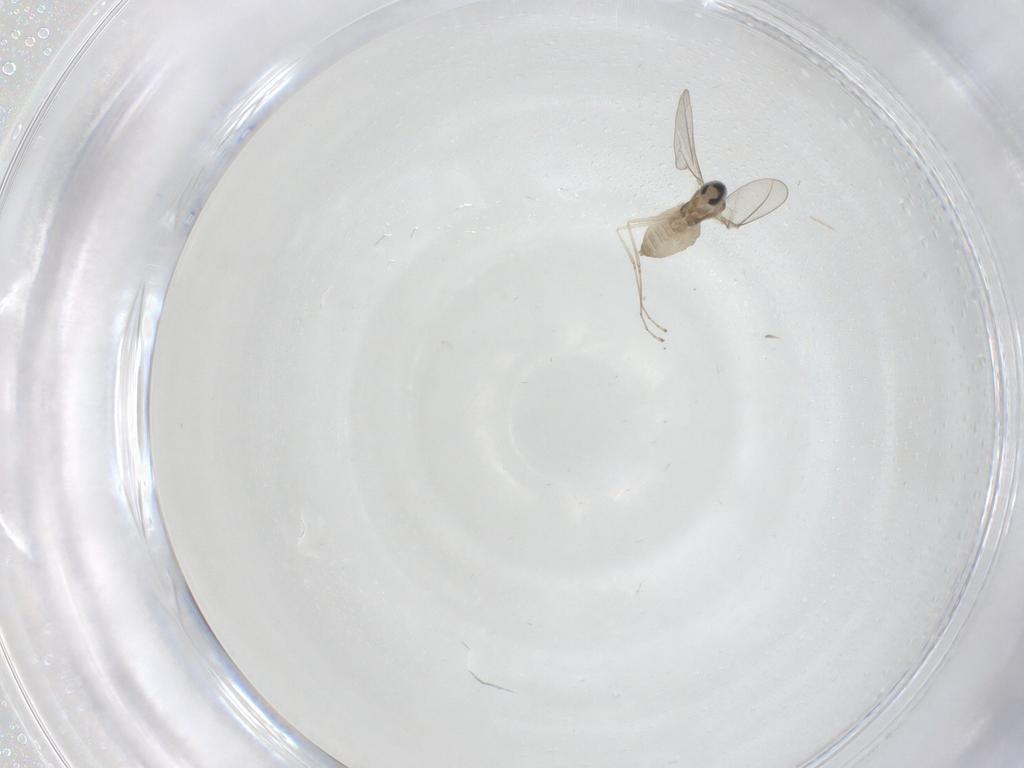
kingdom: Animalia
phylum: Arthropoda
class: Insecta
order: Diptera
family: Cecidomyiidae
